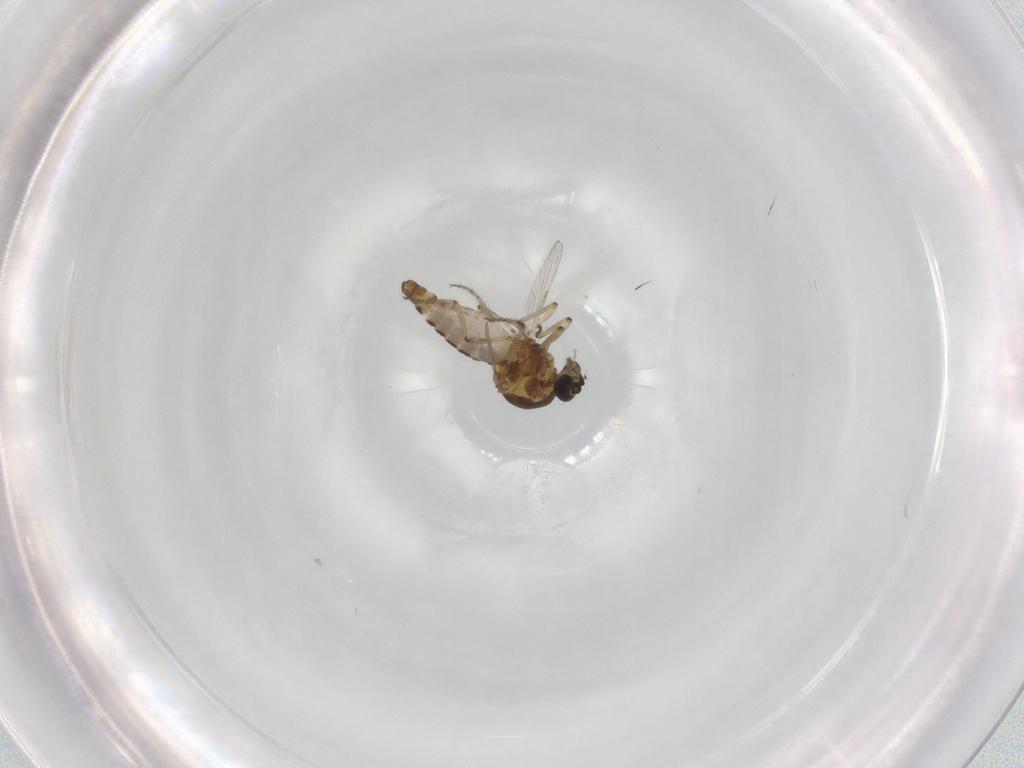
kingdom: Animalia
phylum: Arthropoda
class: Insecta
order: Diptera
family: Ceratopogonidae
